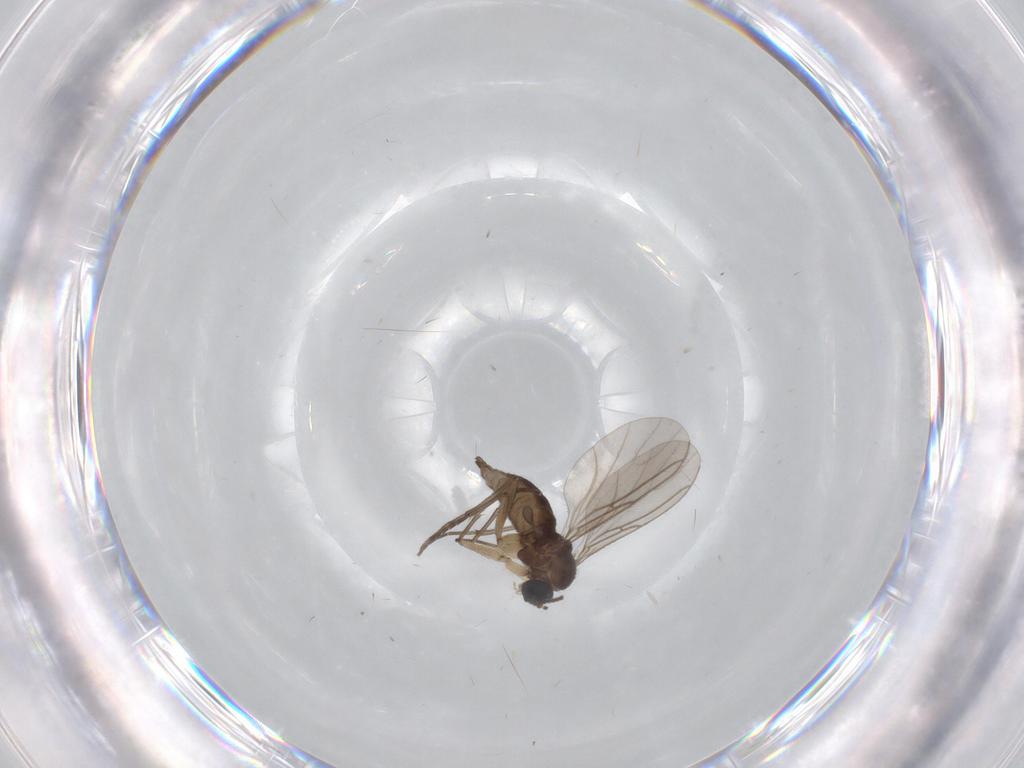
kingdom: Animalia
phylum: Arthropoda
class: Insecta
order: Diptera
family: Sciaridae
